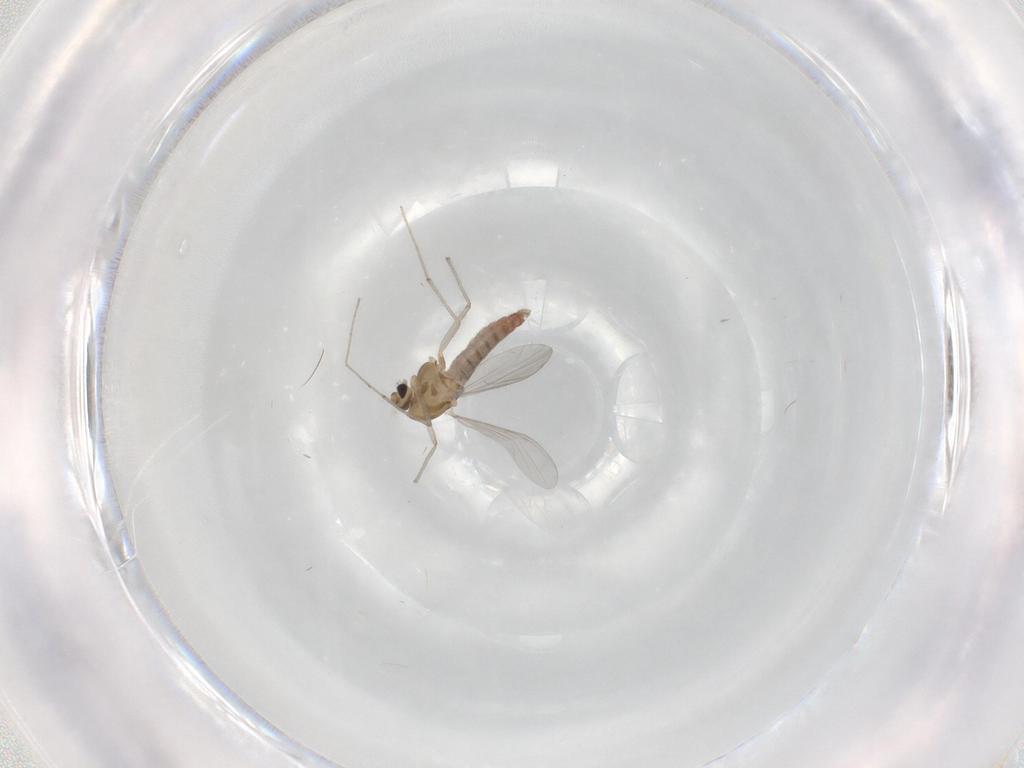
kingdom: Animalia
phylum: Arthropoda
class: Insecta
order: Diptera
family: Chironomidae
